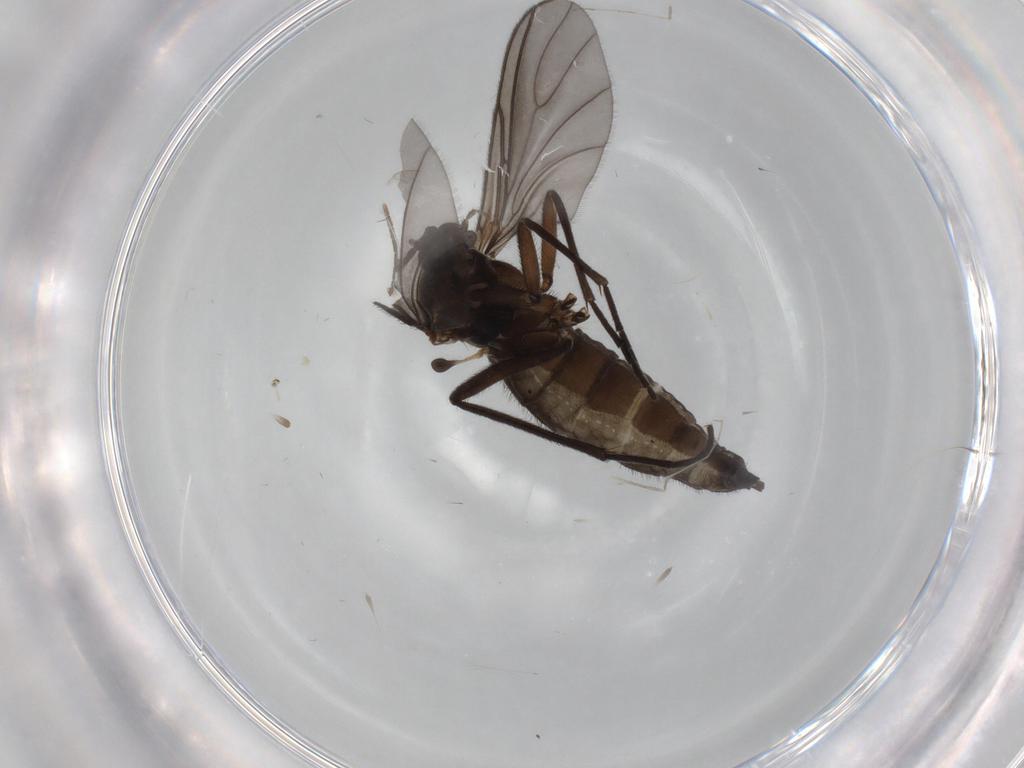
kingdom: Animalia
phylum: Arthropoda
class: Insecta
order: Diptera
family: Sciaridae
